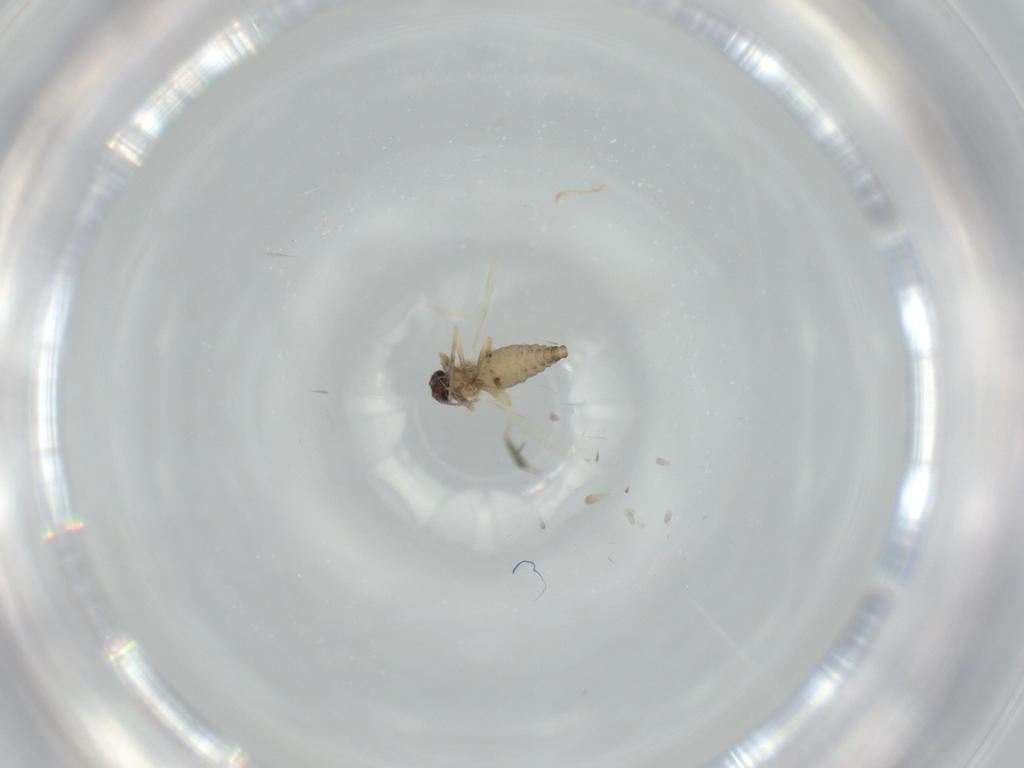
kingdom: Animalia
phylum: Arthropoda
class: Insecta
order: Diptera
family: Ceratopogonidae
